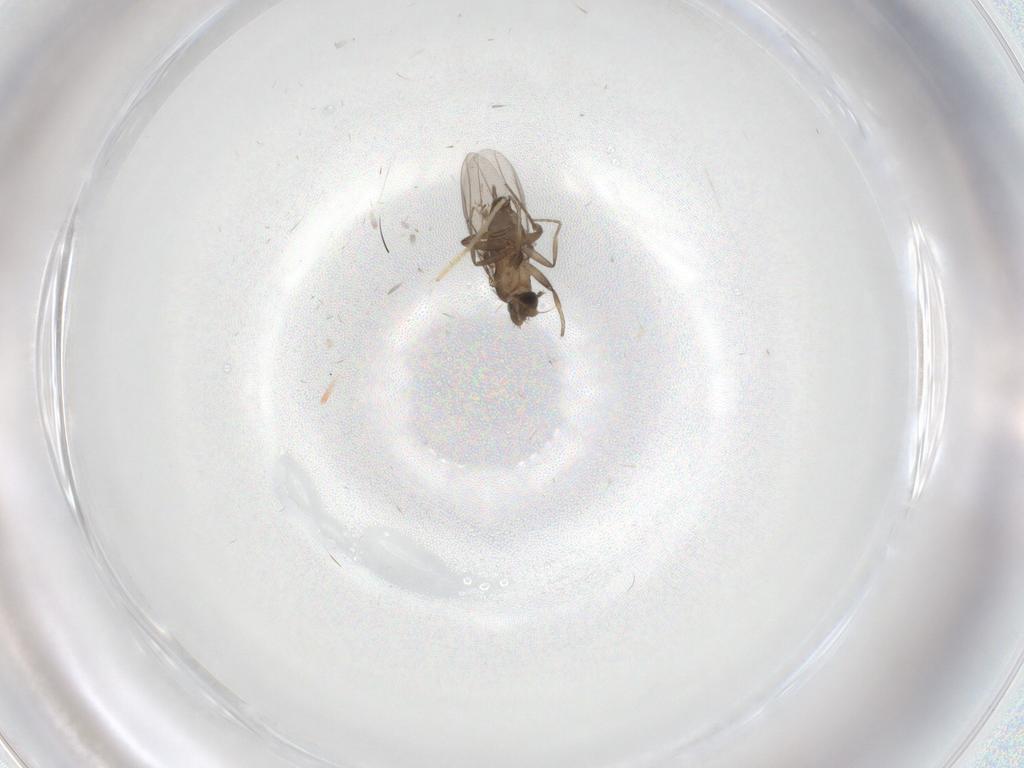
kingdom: Animalia
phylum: Arthropoda
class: Insecta
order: Diptera
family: Phoridae
